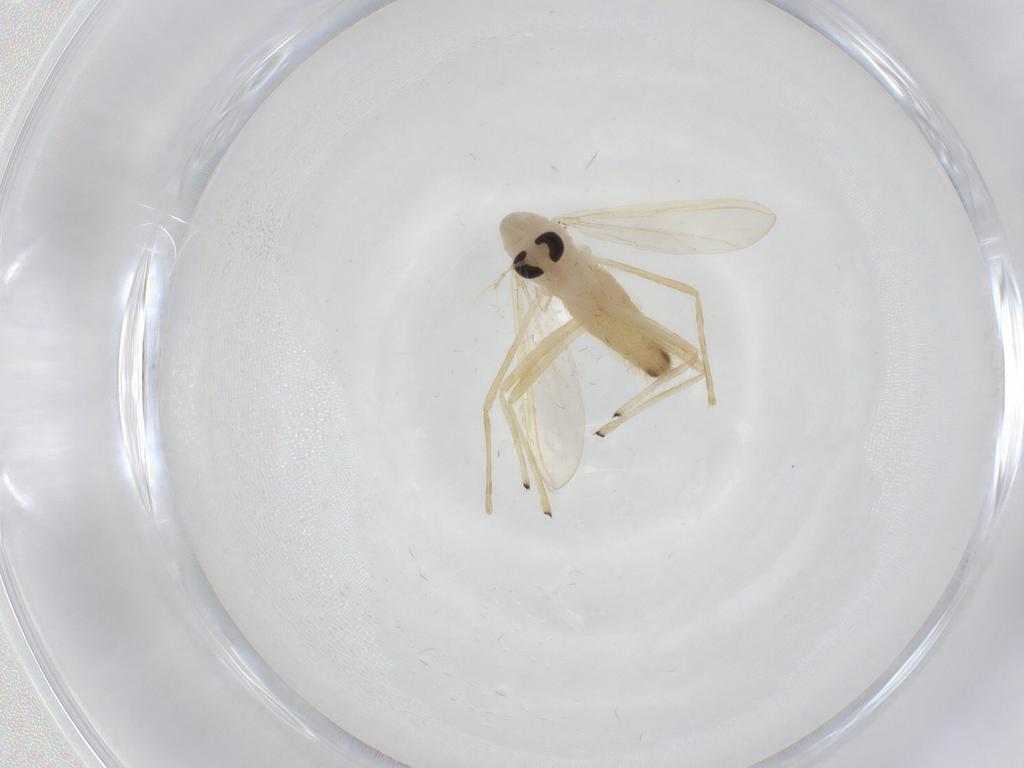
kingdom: Animalia
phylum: Arthropoda
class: Insecta
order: Diptera
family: Chironomidae
